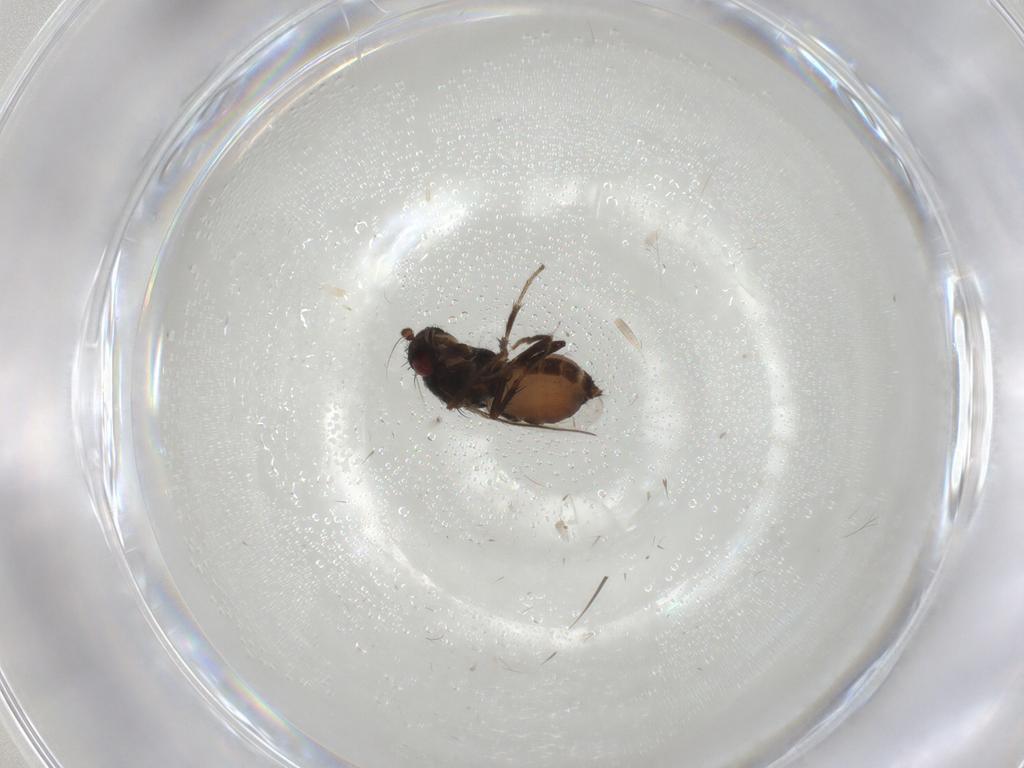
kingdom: Animalia
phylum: Arthropoda
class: Insecta
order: Diptera
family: Sphaeroceridae
